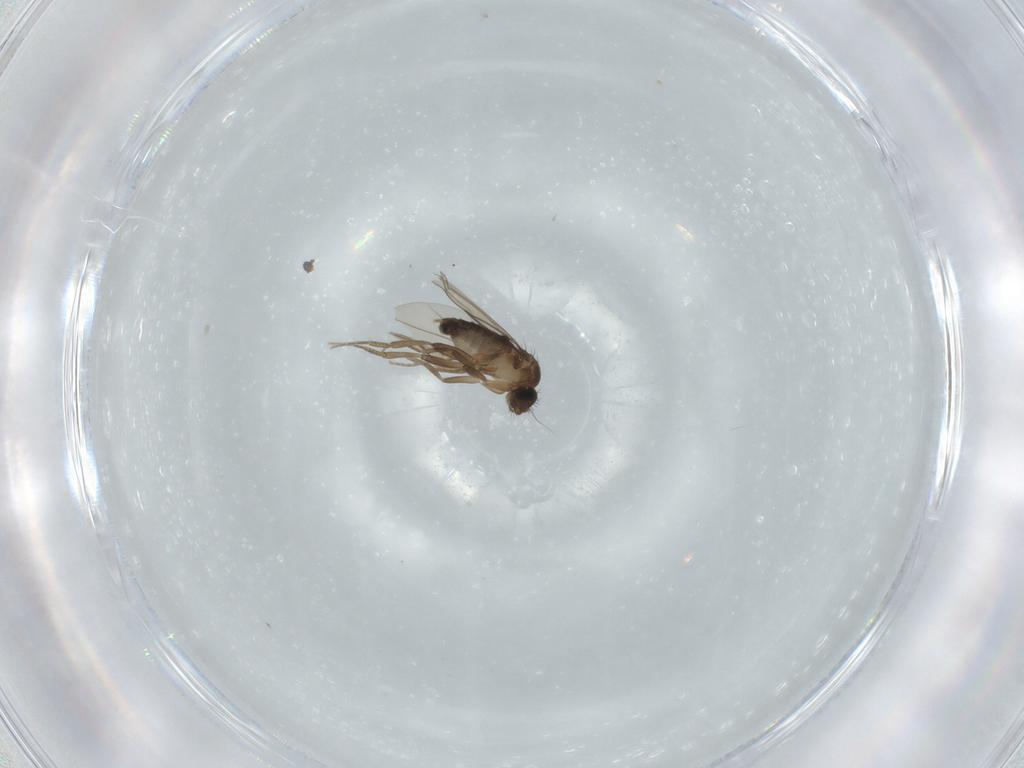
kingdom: Animalia
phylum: Arthropoda
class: Insecta
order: Diptera
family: Phoridae
